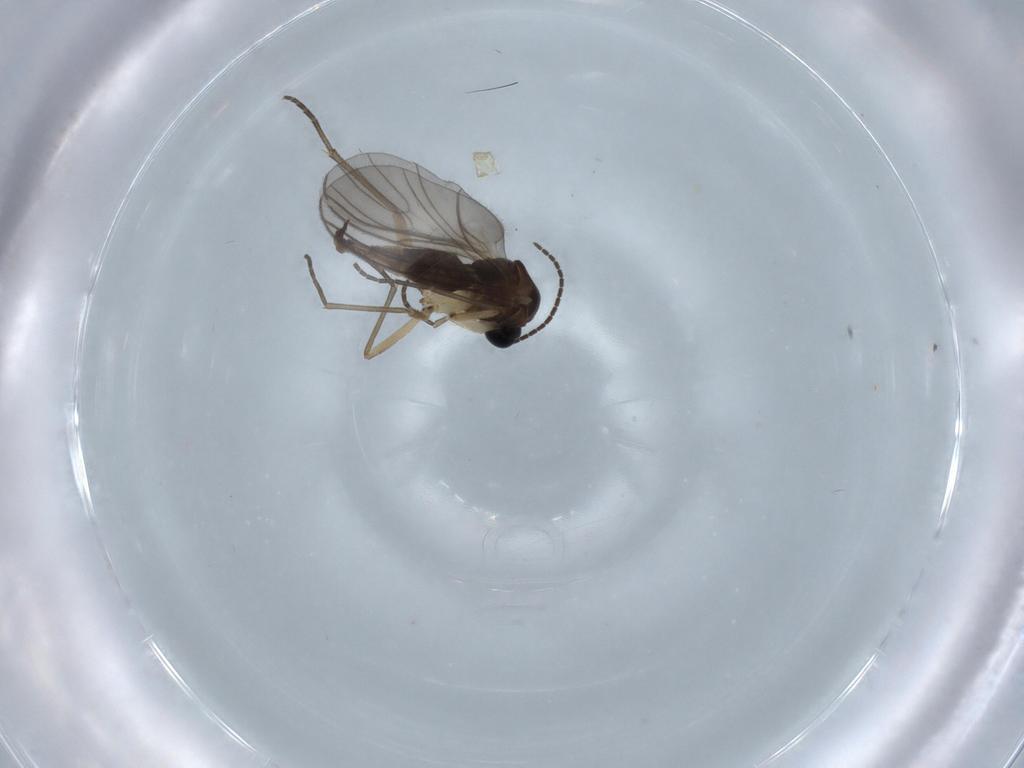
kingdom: Animalia
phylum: Arthropoda
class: Insecta
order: Diptera
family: Sciaridae
